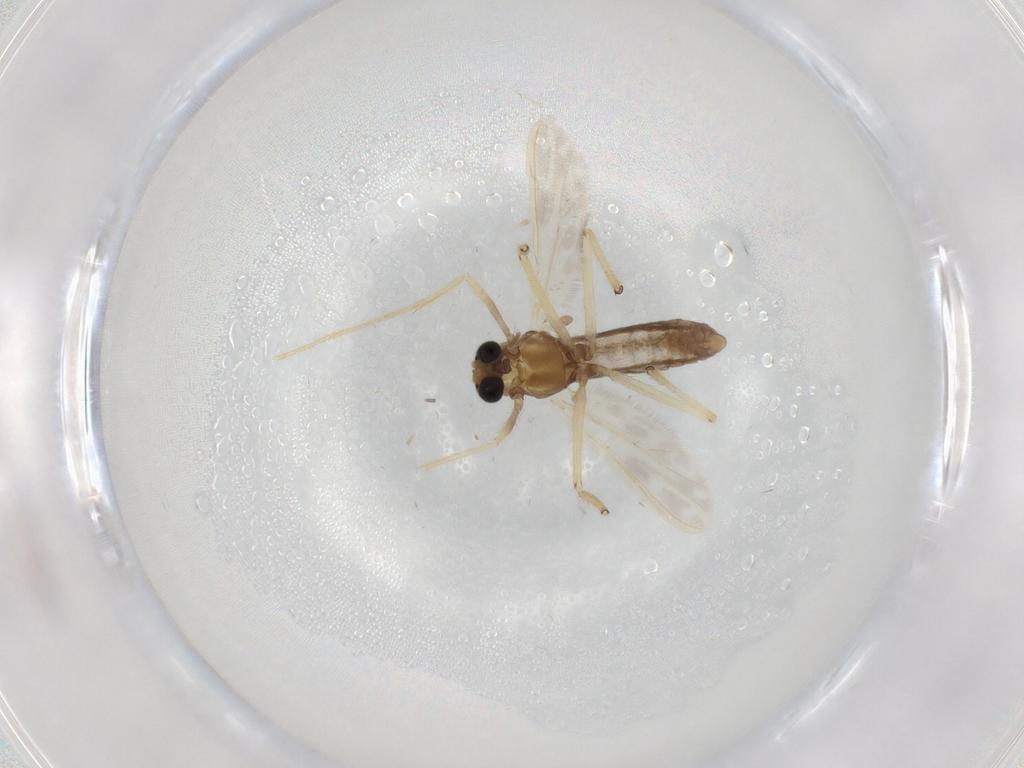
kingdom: Animalia
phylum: Arthropoda
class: Insecta
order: Diptera
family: Chironomidae
